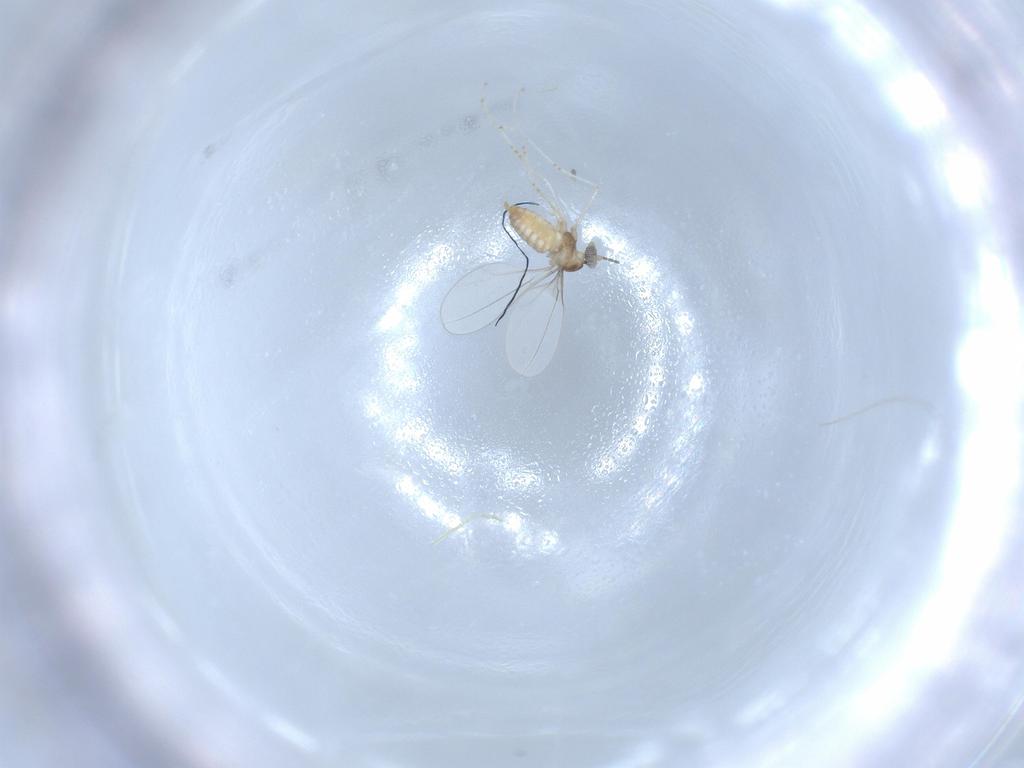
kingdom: Animalia
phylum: Arthropoda
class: Insecta
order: Diptera
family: Cecidomyiidae
